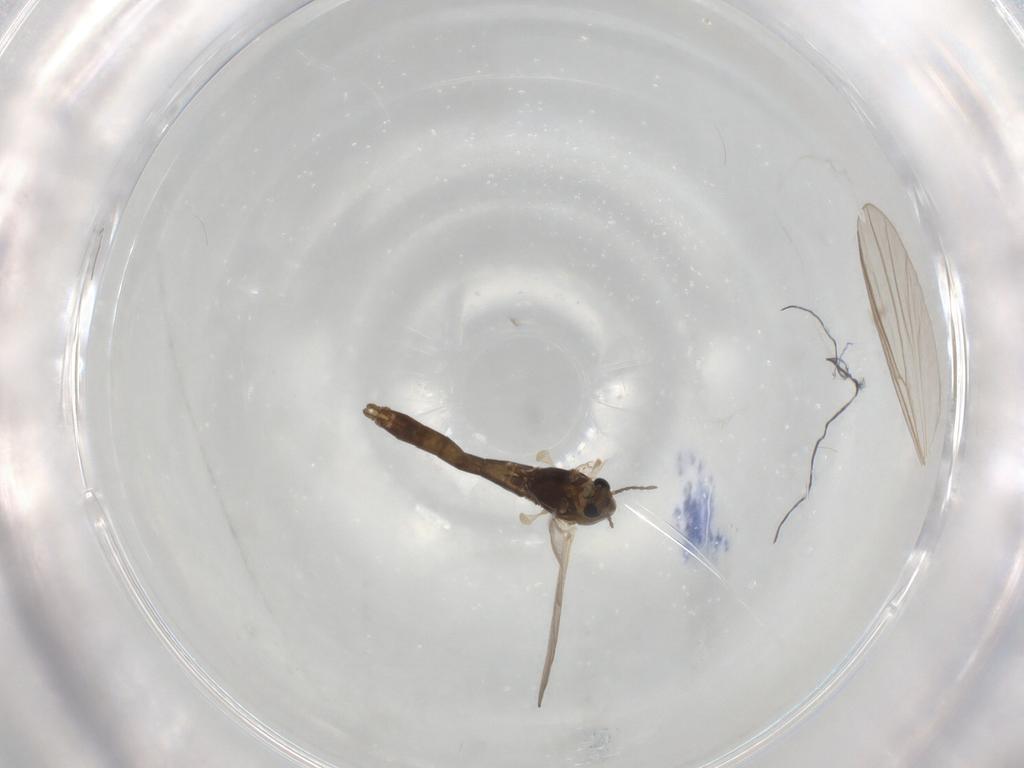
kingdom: Animalia
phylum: Arthropoda
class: Insecta
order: Diptera
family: Chironomidae
